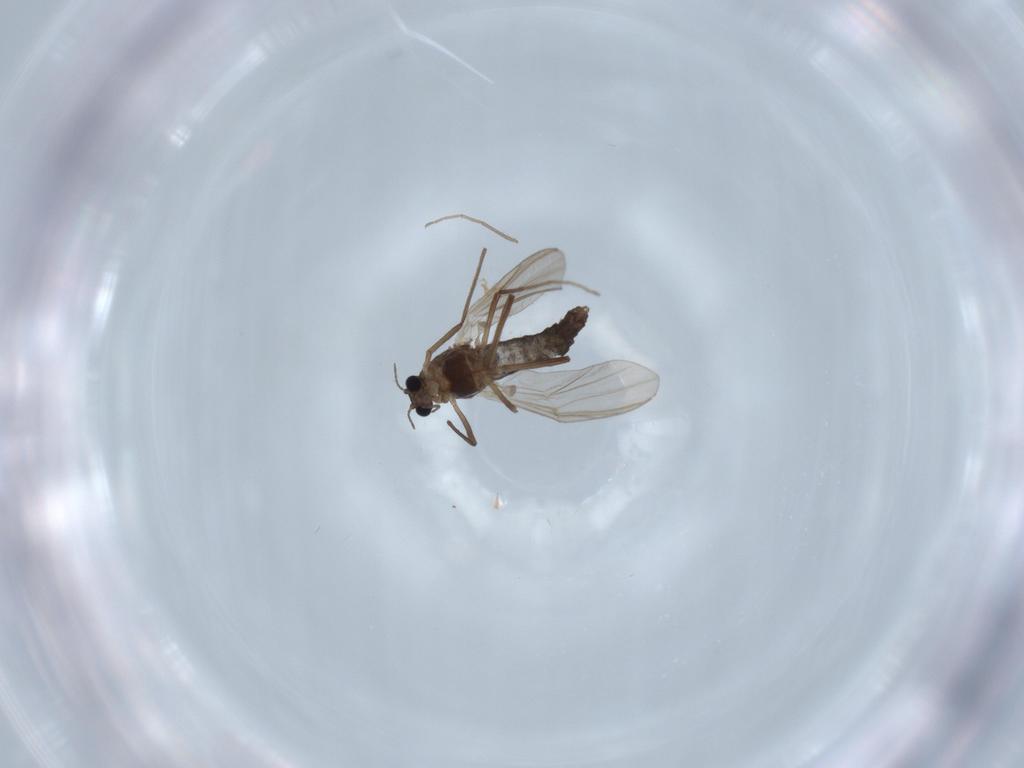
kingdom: Animalia
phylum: Arthropoda
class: Insecta
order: Diptera
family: Chironomidae
